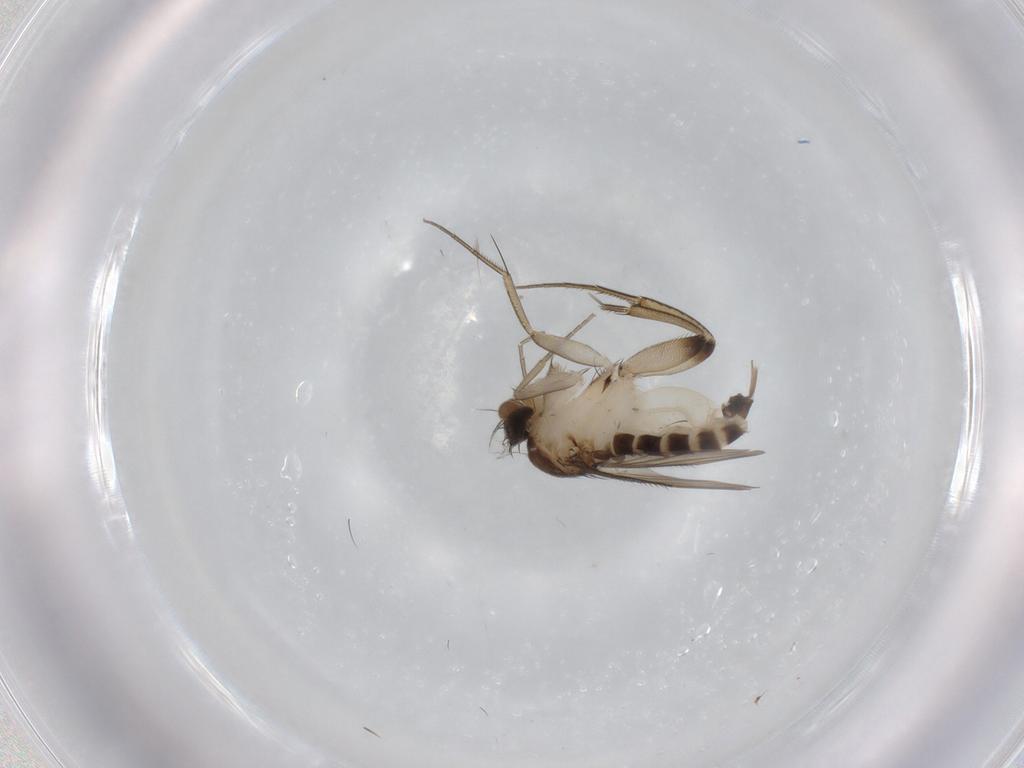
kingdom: Animalia
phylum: Arthropoda
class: Insecta
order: Diptera
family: Phoridae
